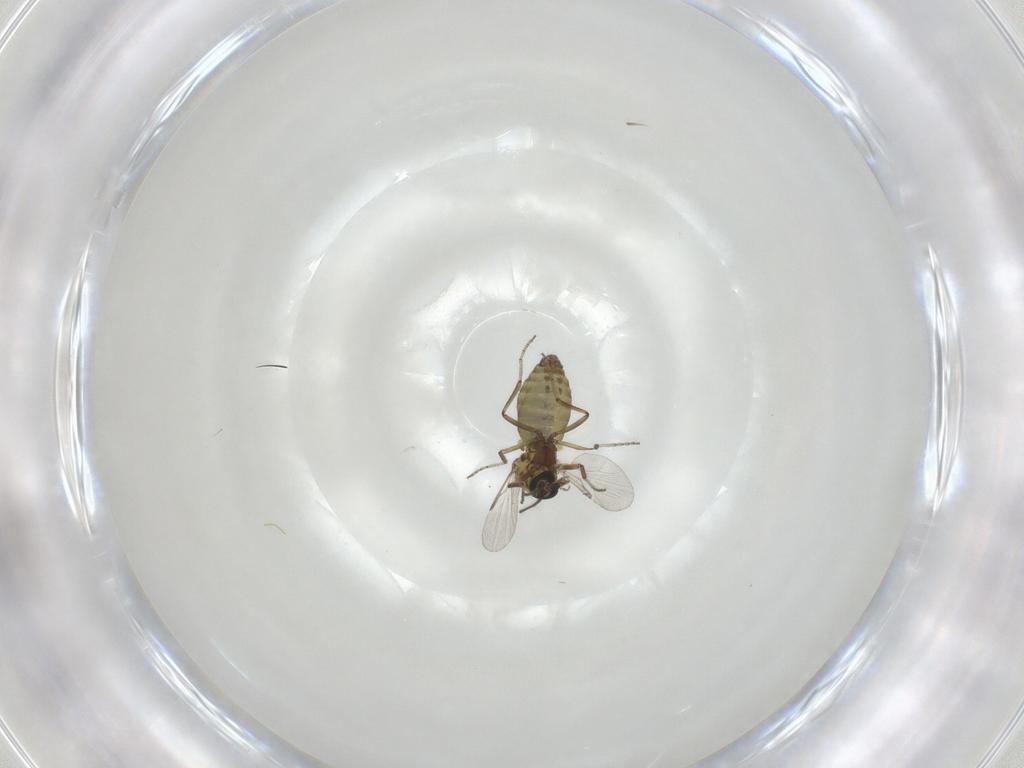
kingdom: Animalia
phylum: Arthropoda
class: Insecta
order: Diptera
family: Ceratopogonidae
